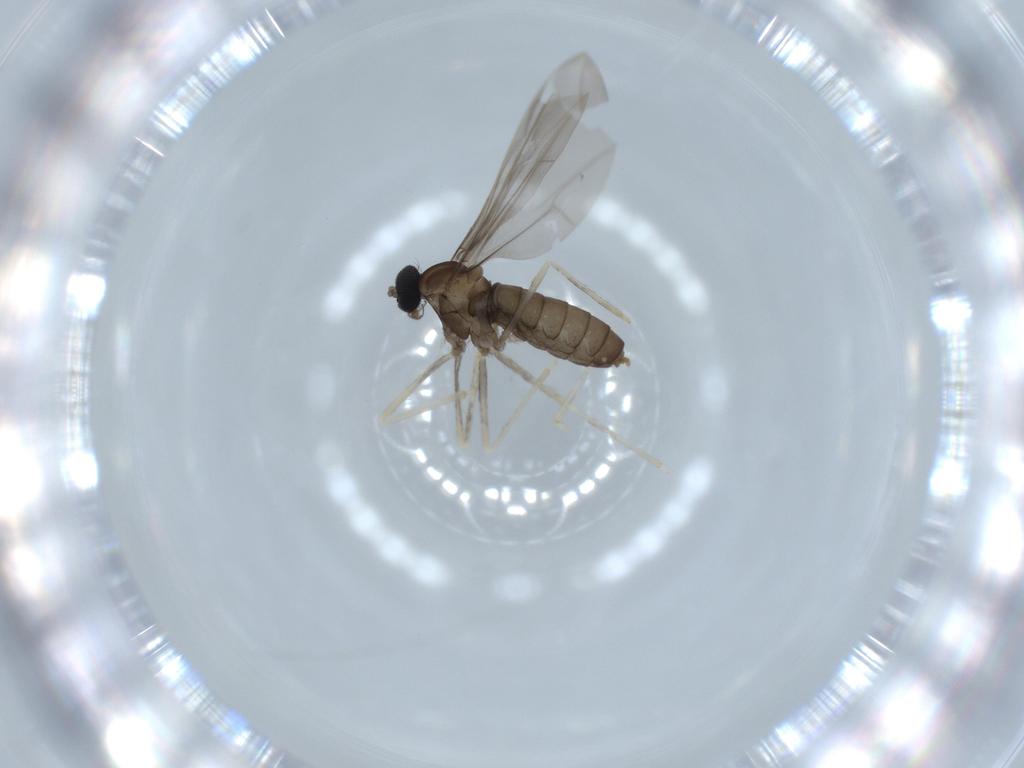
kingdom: Animalia
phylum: Arthropoda
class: Insecta
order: Diptera
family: Cecidomyiidae
